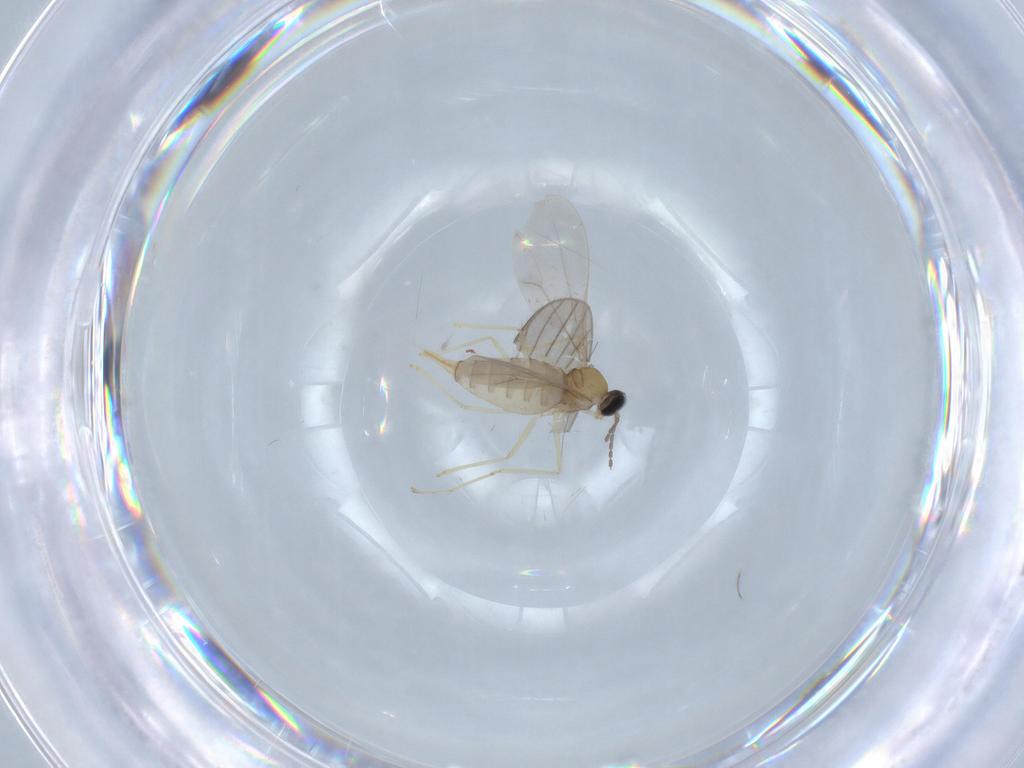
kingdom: Animalia
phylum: Arthropoda
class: Insecta
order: Diptera
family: Cecidomyiidae
